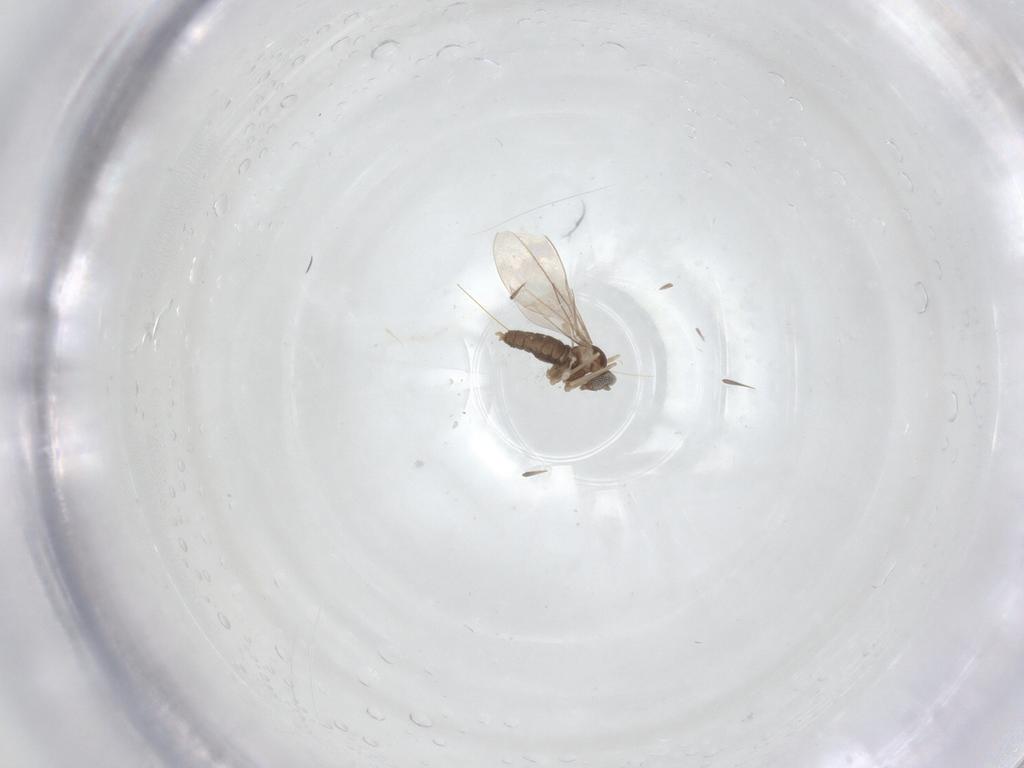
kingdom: Animalia
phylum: Arthropoda
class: Insecta
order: Diptera
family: Cecidomyiidae
